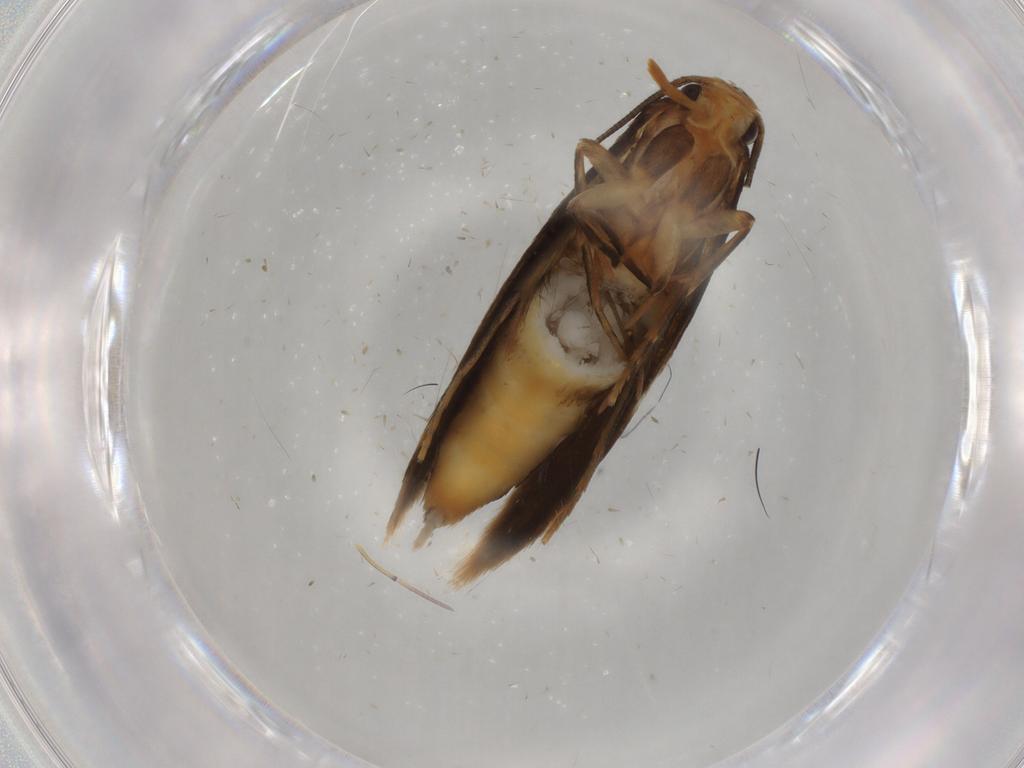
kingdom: Animalia
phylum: Arthropoda
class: Insecta
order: Lepidoptera
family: Tineidae
